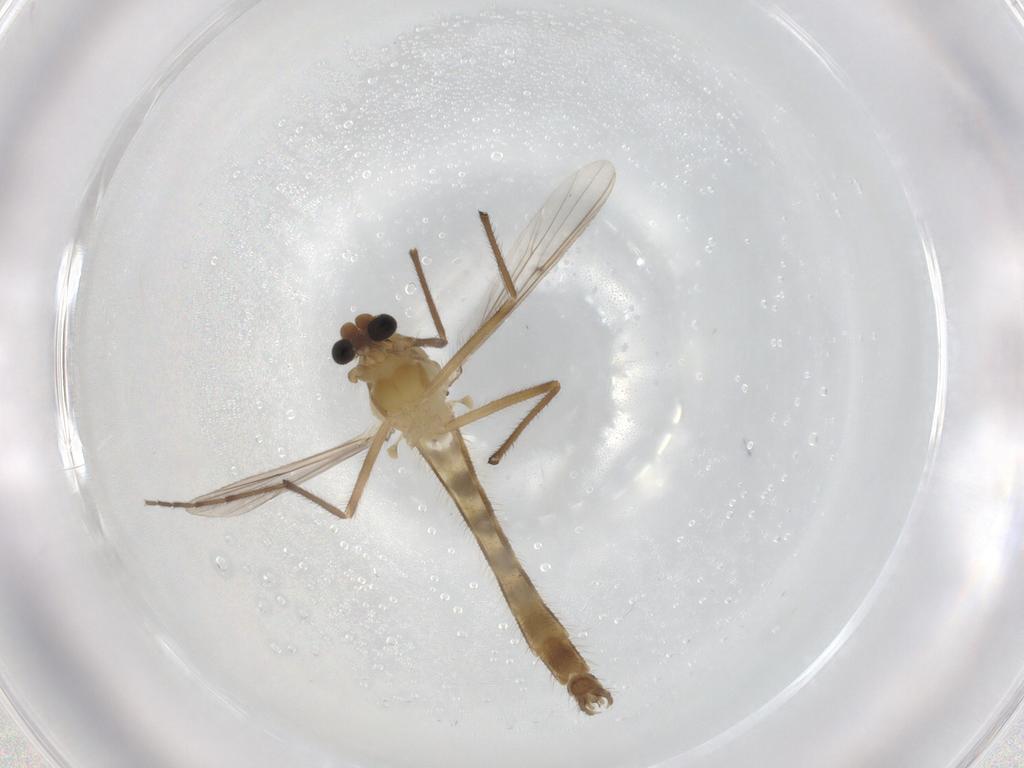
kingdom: Animalia
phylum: Arthropoda
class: Insecta
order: Diptera
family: Chironomidae
